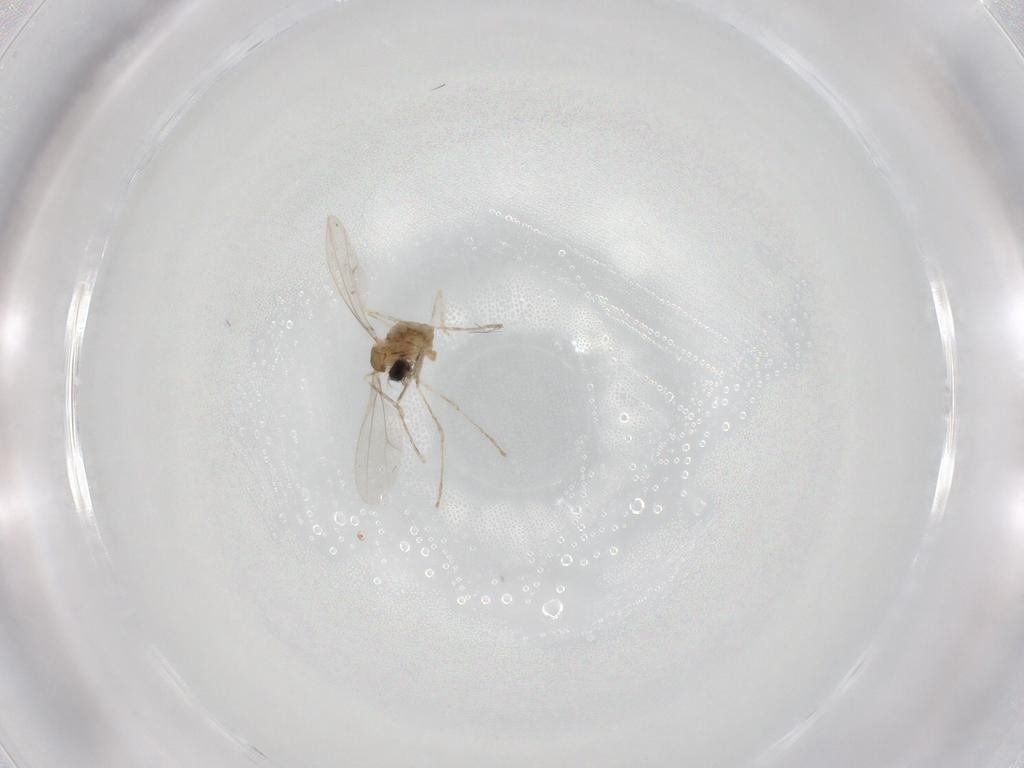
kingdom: Animalia
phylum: Arthropoda
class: Insecta
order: Diptera
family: Cecidomyiidae
